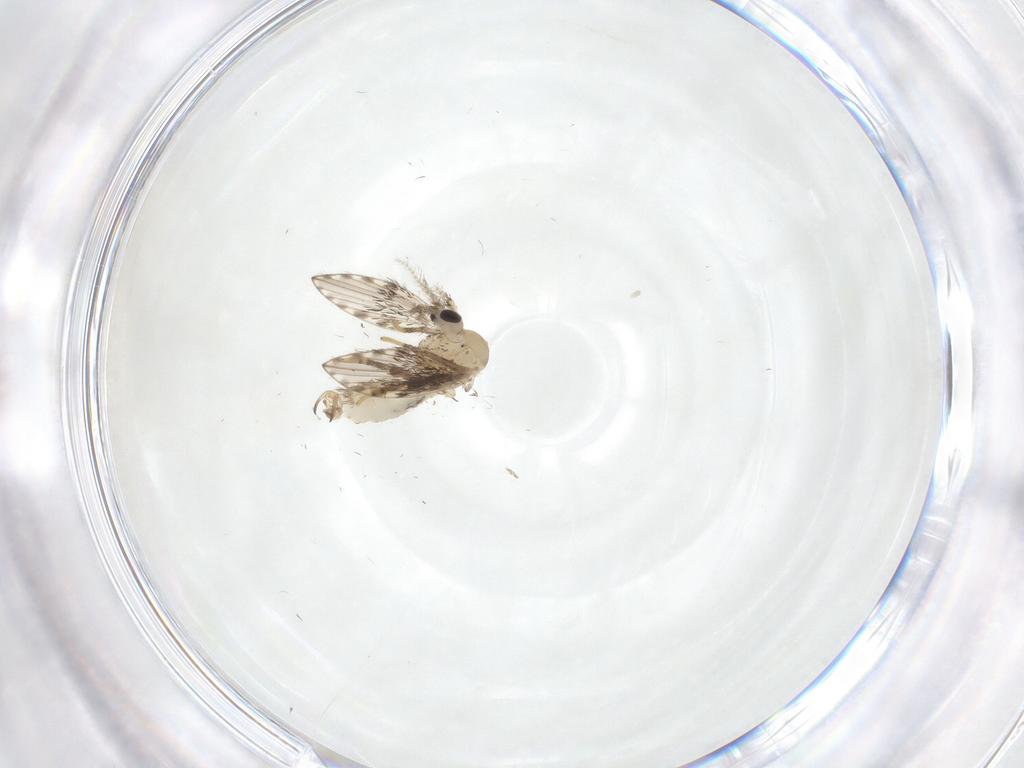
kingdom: Animalia
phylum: Arthropoda
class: Insecta
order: Diptera
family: Psychodidae
